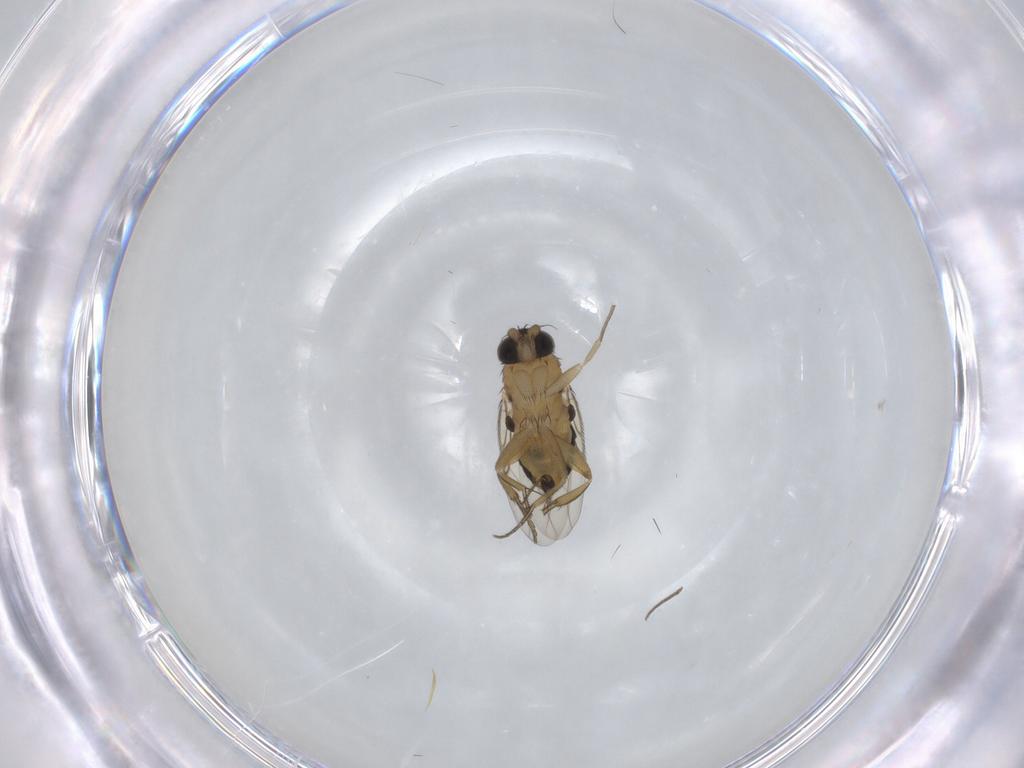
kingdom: Animalia
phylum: Arthropoda
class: Insecta
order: Diptera
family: Phoridae
